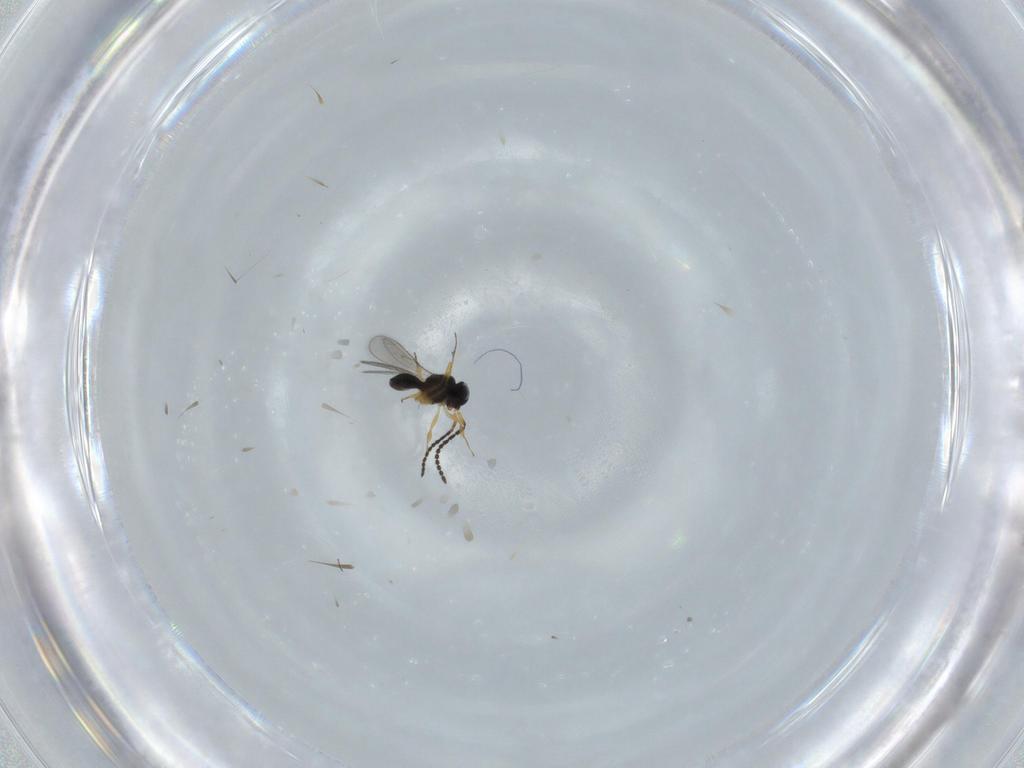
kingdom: Animalia
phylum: Arthropoda
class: Insecta
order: Hymenoptera
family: Scelionidae
